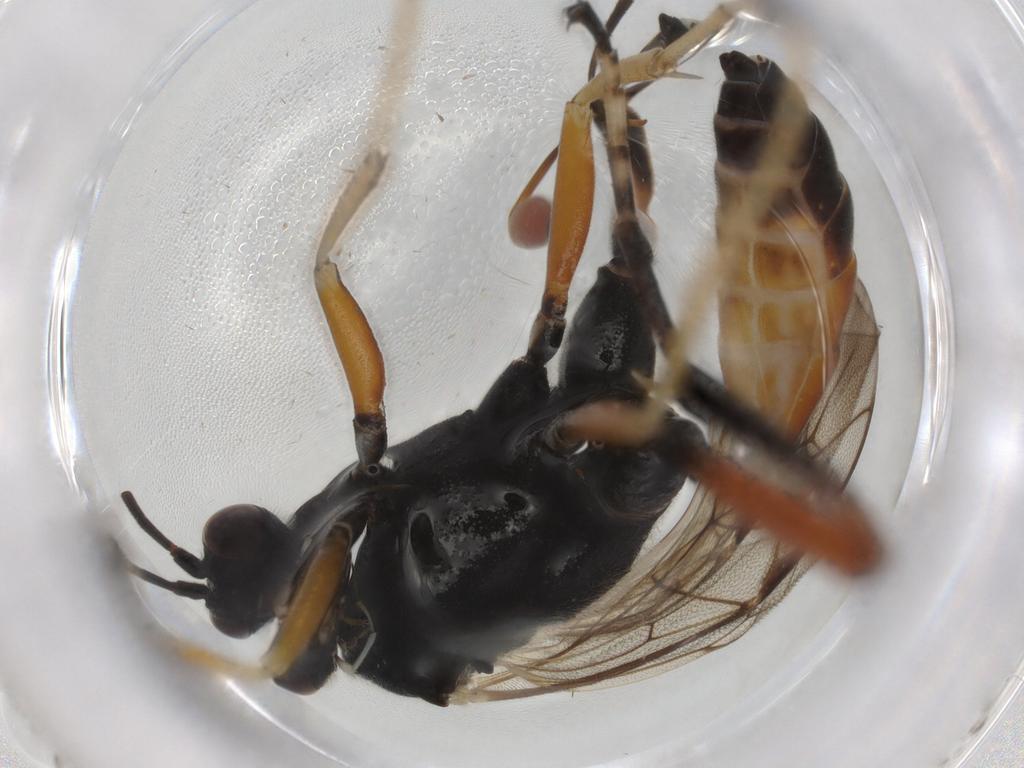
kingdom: Animalia
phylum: Arthropoda
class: Insecta
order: Hymenoptera
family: Ichneumonidae
